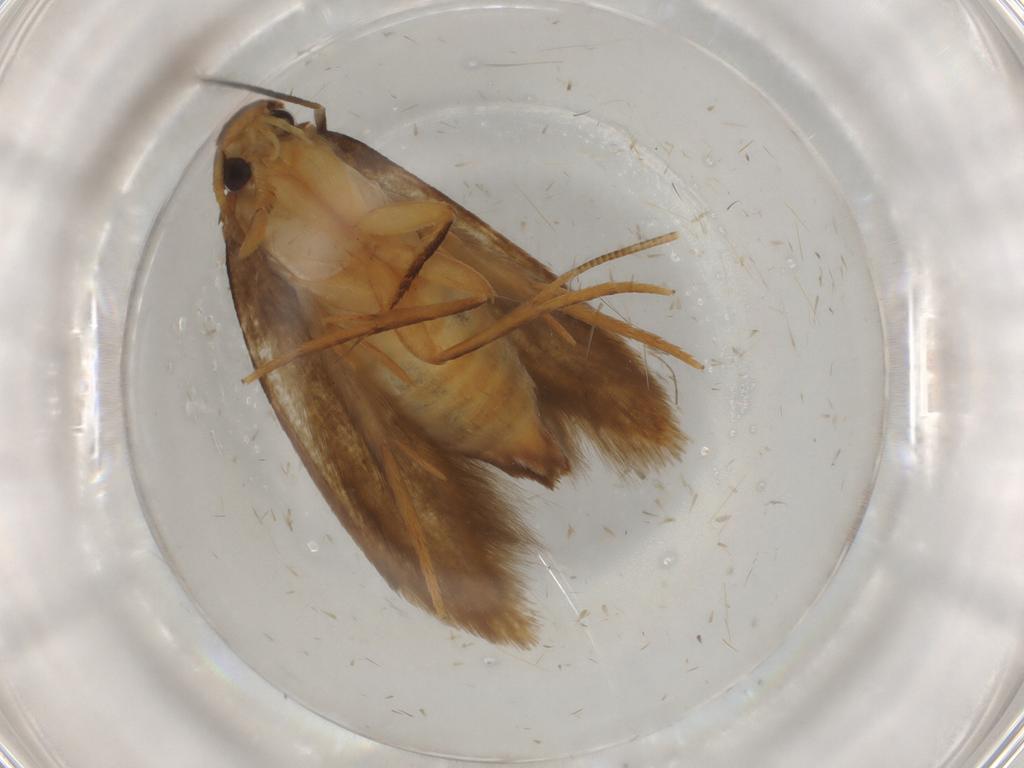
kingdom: Animalia
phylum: Arthropoda
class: Insecta
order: Lepidoptera
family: Tineidae
